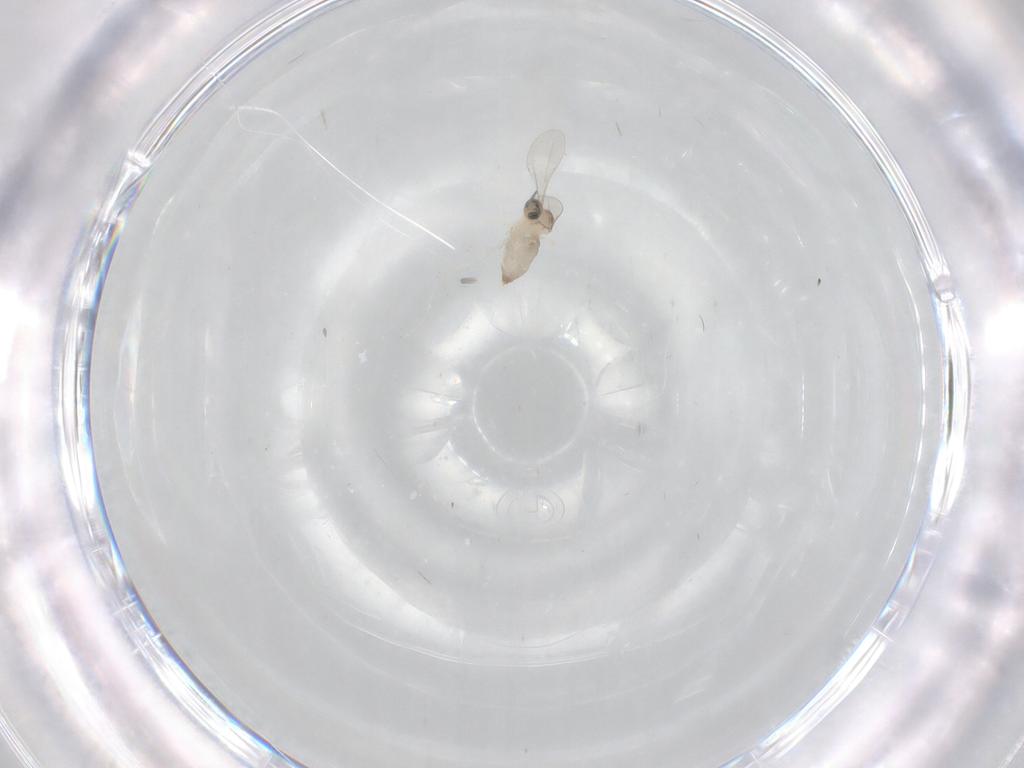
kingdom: Animalia
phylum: Arthropoda
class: Insecta
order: Diptera
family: Cecidomyiidae
